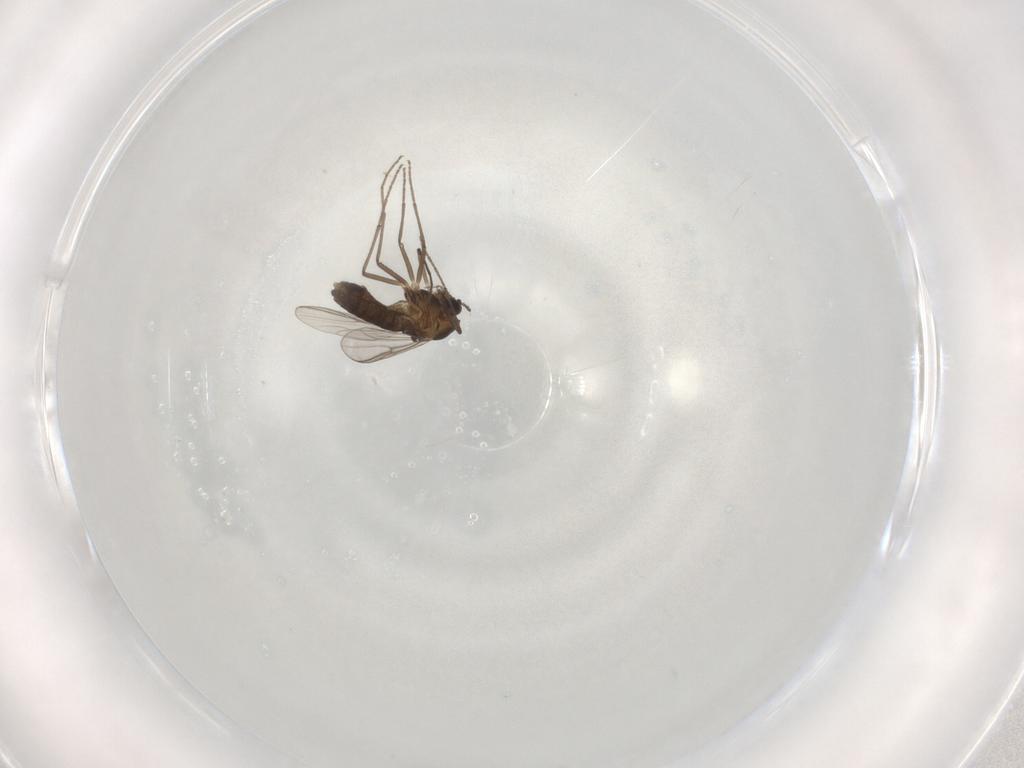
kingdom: Animalia
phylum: Arthropoda
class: Insecta
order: Diptera
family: Chironomidae
